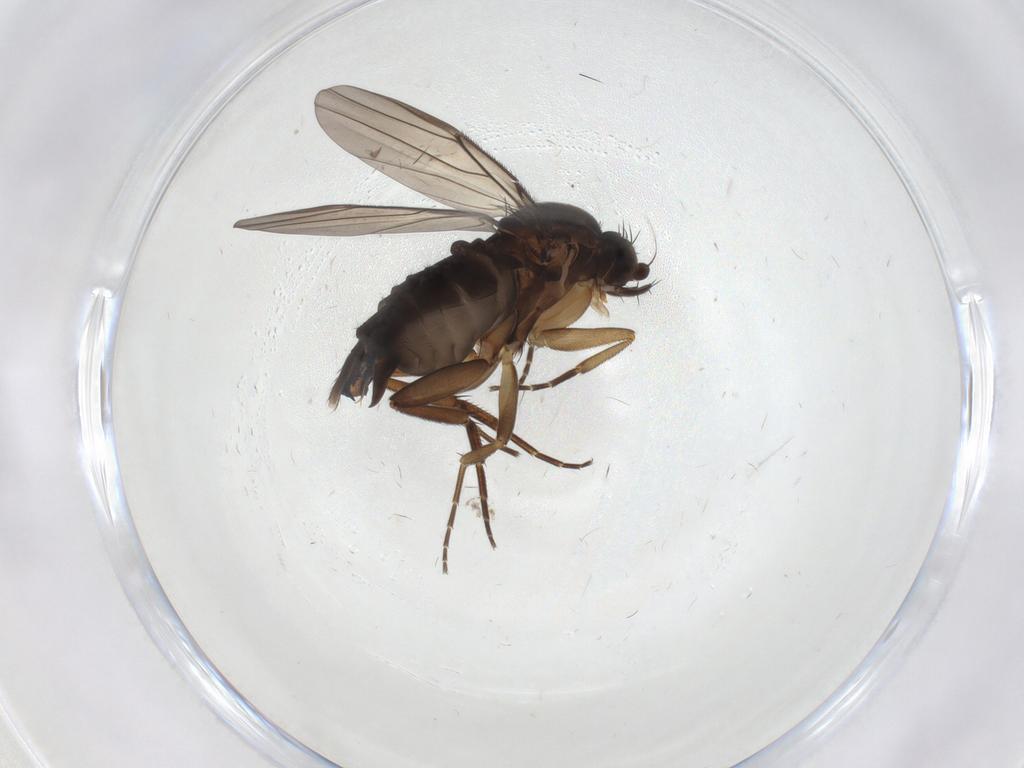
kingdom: Animalia
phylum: Arthropoda
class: Insecta
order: Diptera
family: Phoridae
